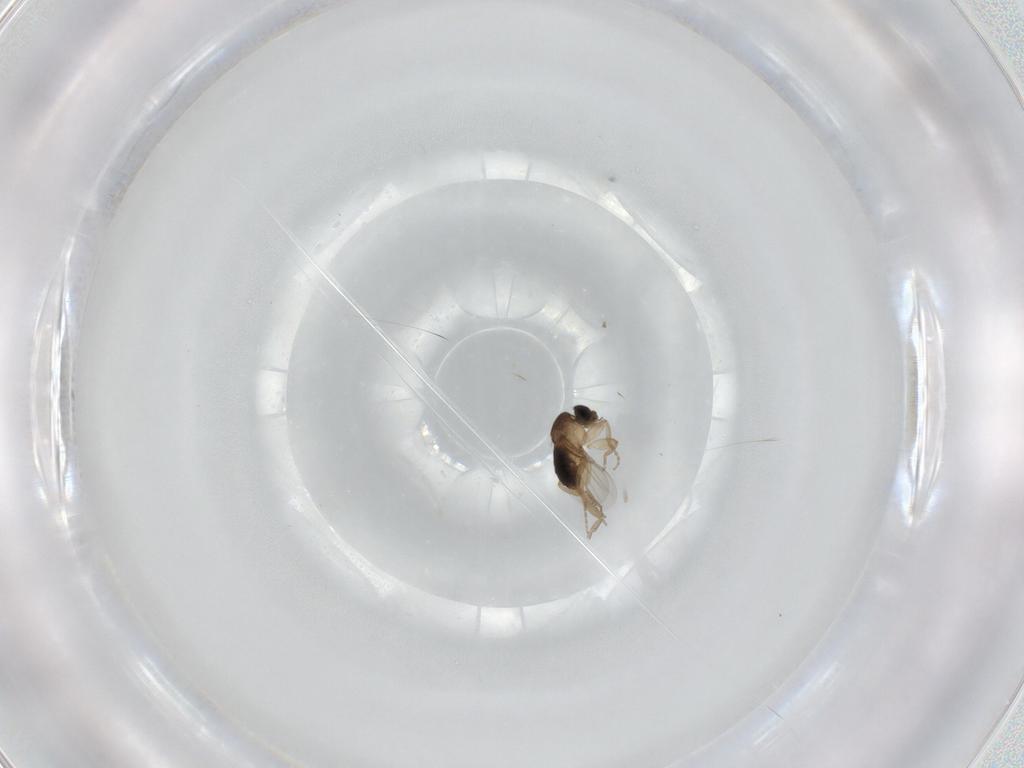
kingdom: Animalia
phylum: Arthropoda
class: Insecta
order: Diptera
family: Phoridae
